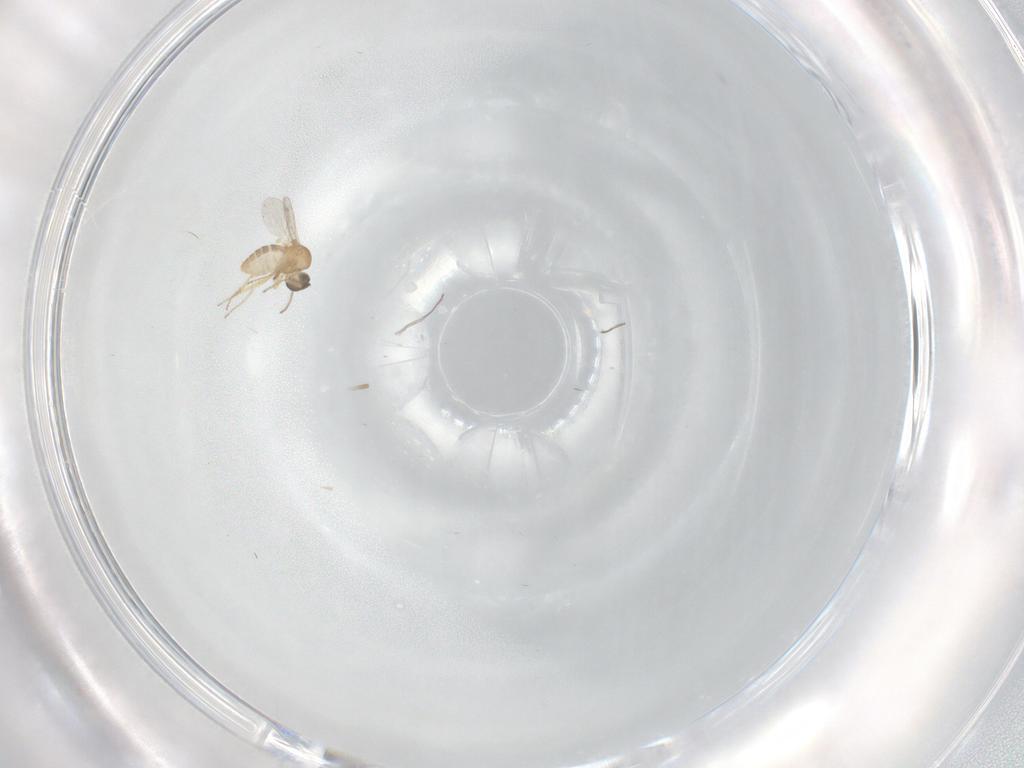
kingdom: Animalia
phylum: Arthropoda
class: Insecta
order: Diptera
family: Ceratopogonidae
